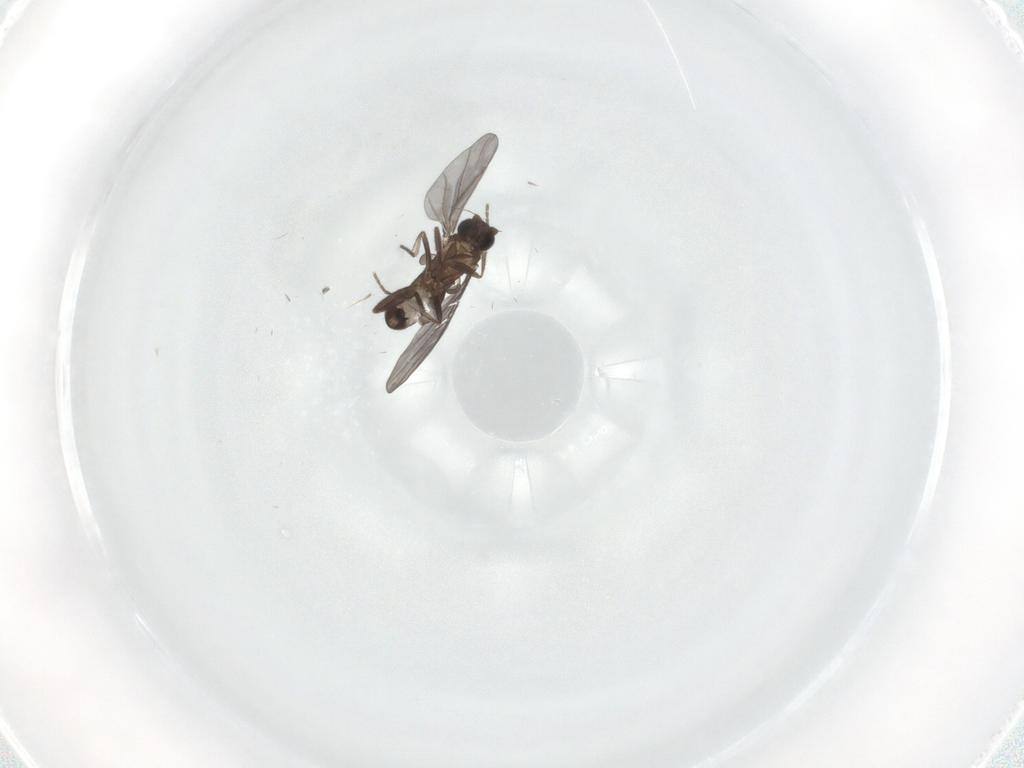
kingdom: Animalia
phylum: Arthropoda
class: Insecta
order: Diptera
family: Phoridae
